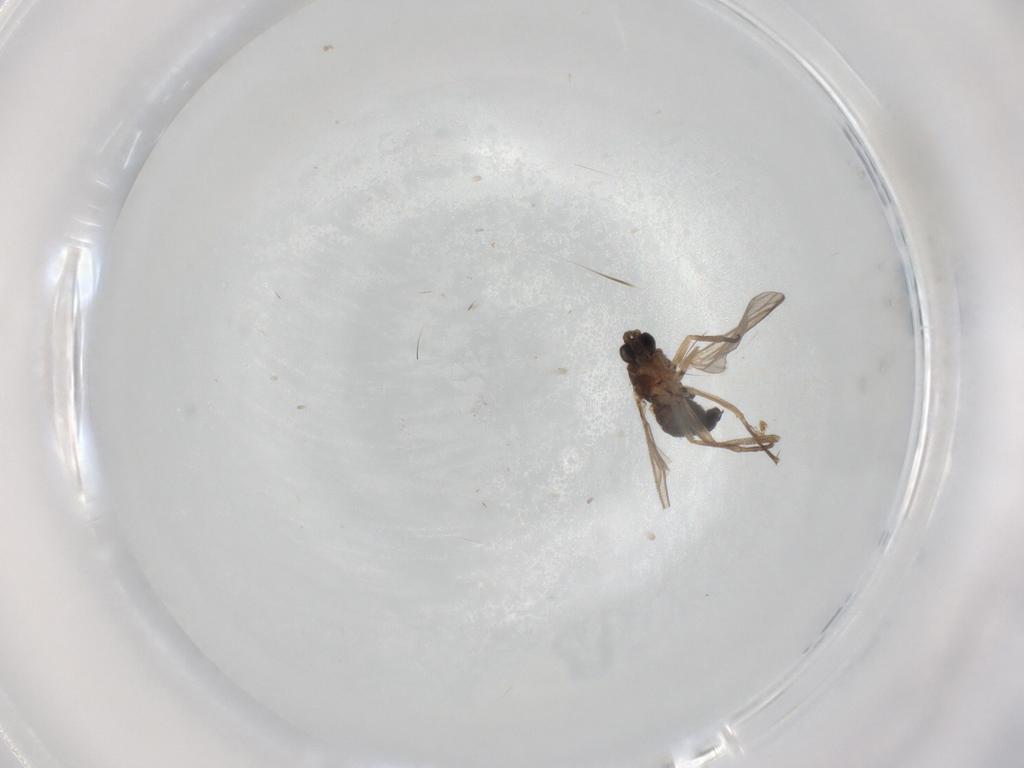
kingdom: Animalia
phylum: Arthropoda
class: Insecta
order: Diptera
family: Sciaridae
